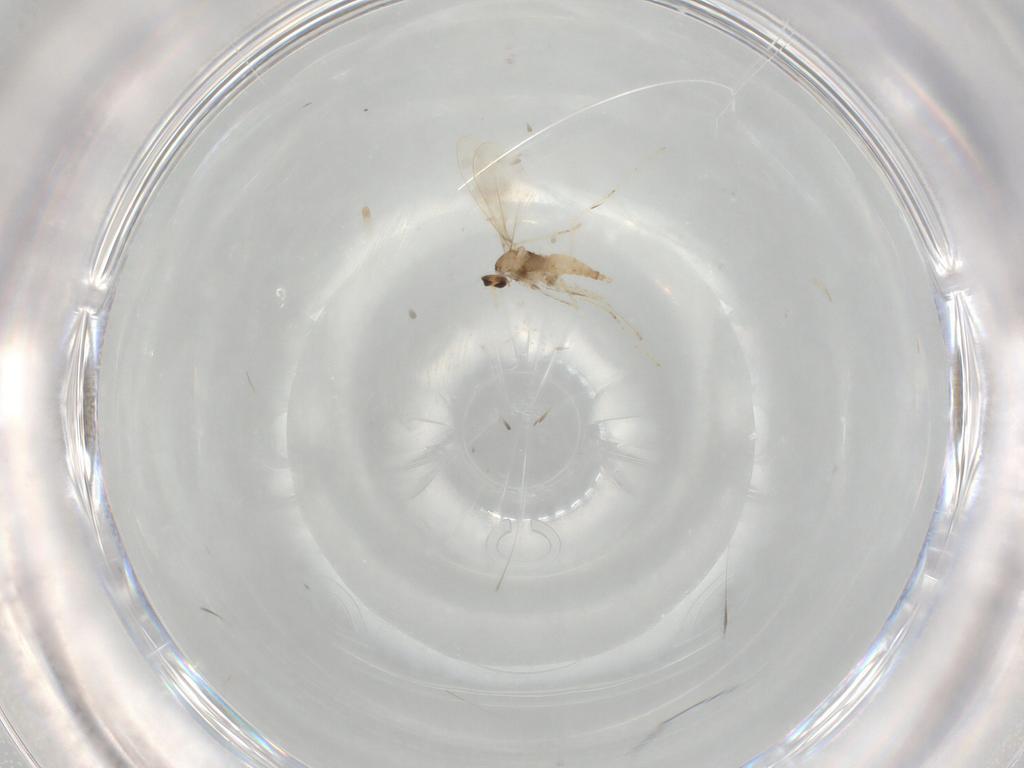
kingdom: Animalia
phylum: Arthropoda
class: Insecta
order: Diptera
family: Cecidomyiidae
